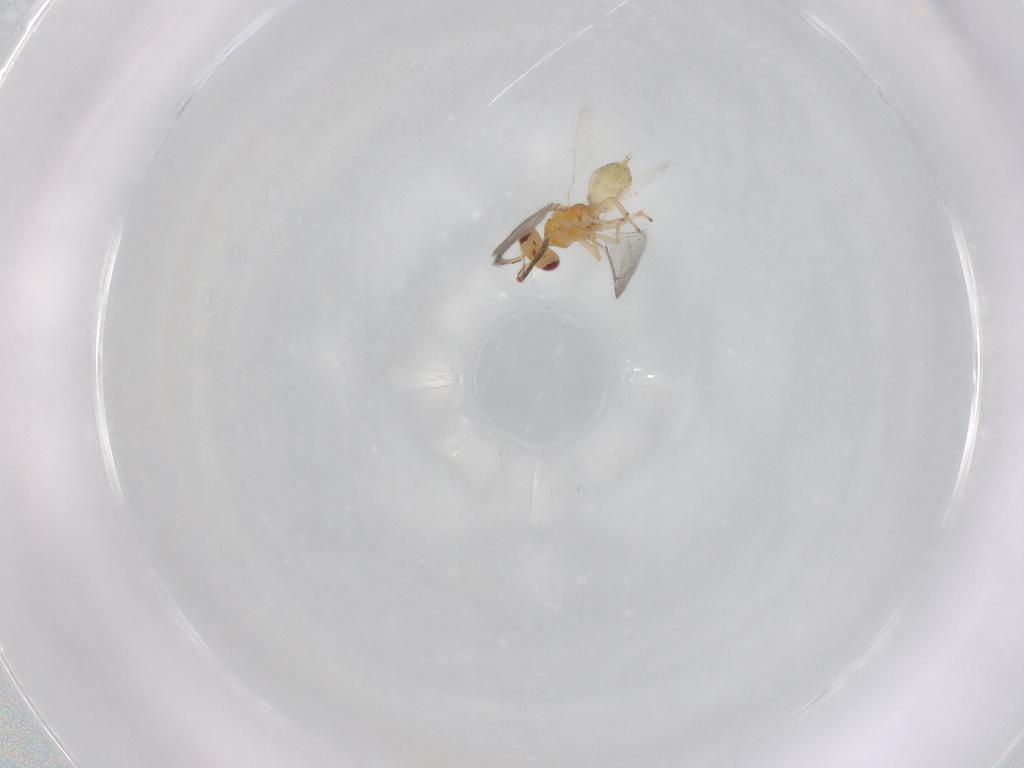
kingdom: Animalia
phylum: Arthropoda
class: Insecta
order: Hymenoptera
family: Eulophidae
